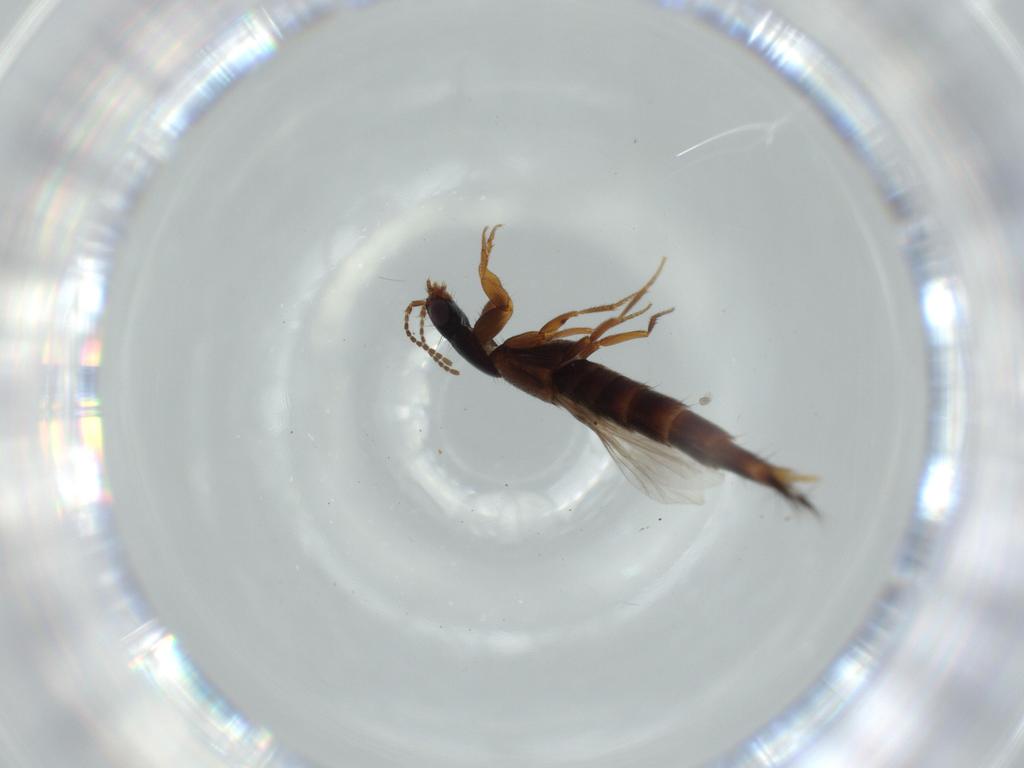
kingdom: Animalia
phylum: Arthropoda
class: Insecta
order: Coleoptera
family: Staphylinidae
